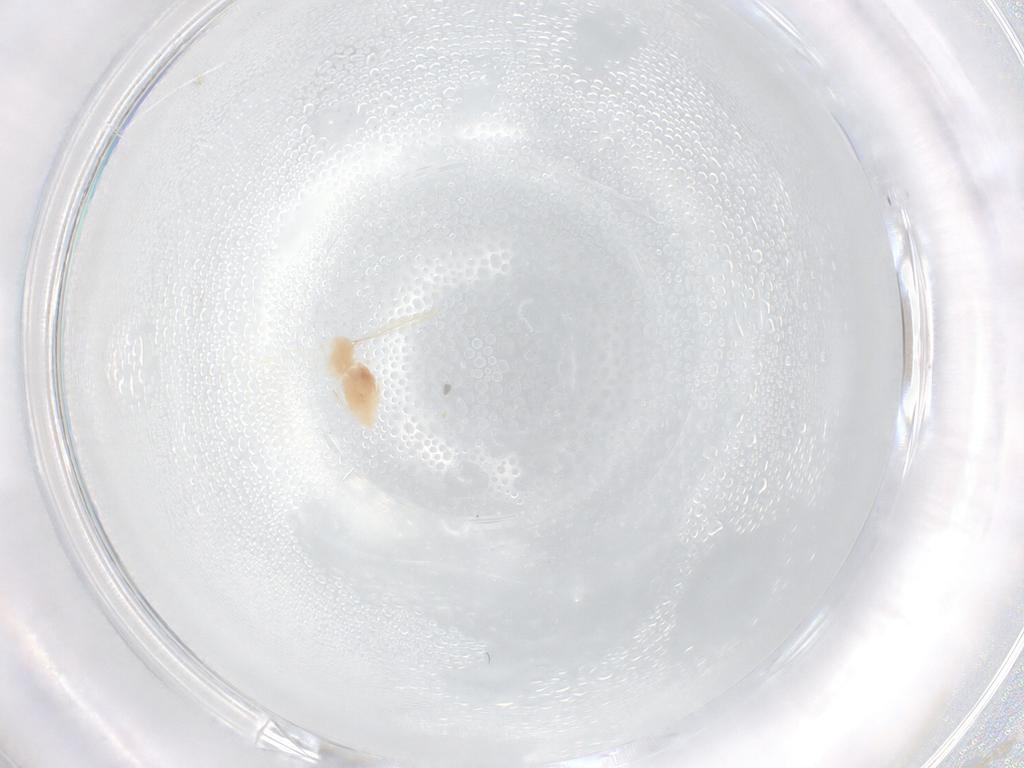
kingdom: Animalia
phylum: Arthropoda
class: Insecta
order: Diptera
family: Cecidomyiidae
